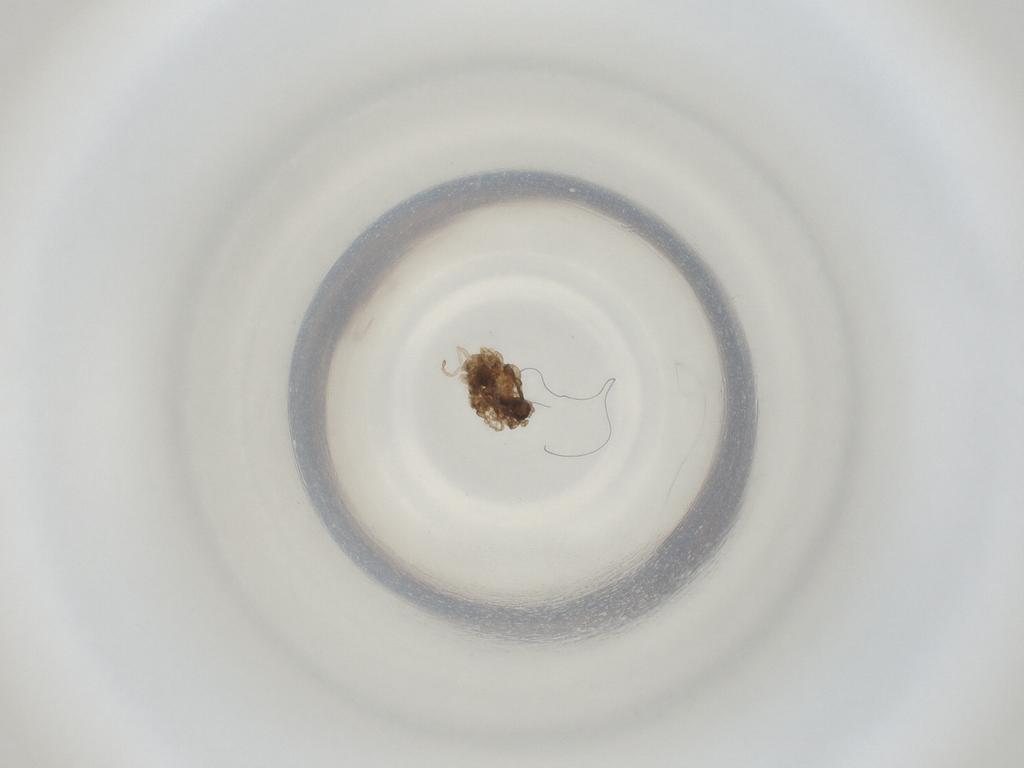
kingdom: Animalia
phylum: Arthropoda
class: Insecta
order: Diptera
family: Cecidomyiidae
